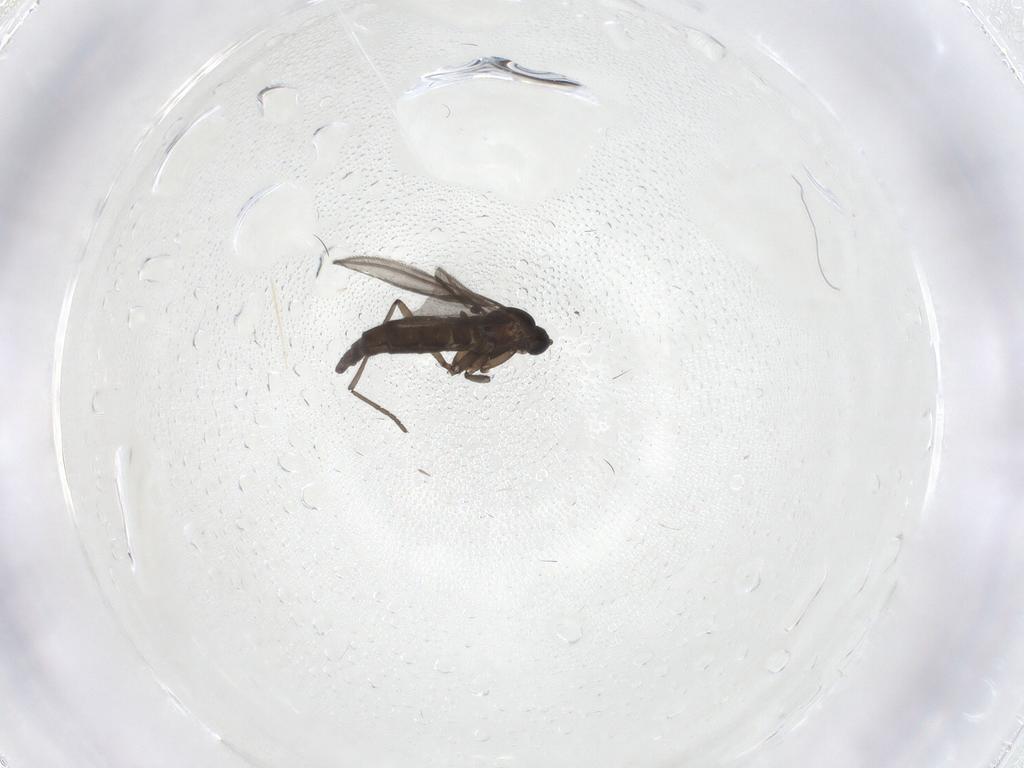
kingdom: Animalia
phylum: Arthropoda
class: Insecta
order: Diptera
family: Sciaridae
